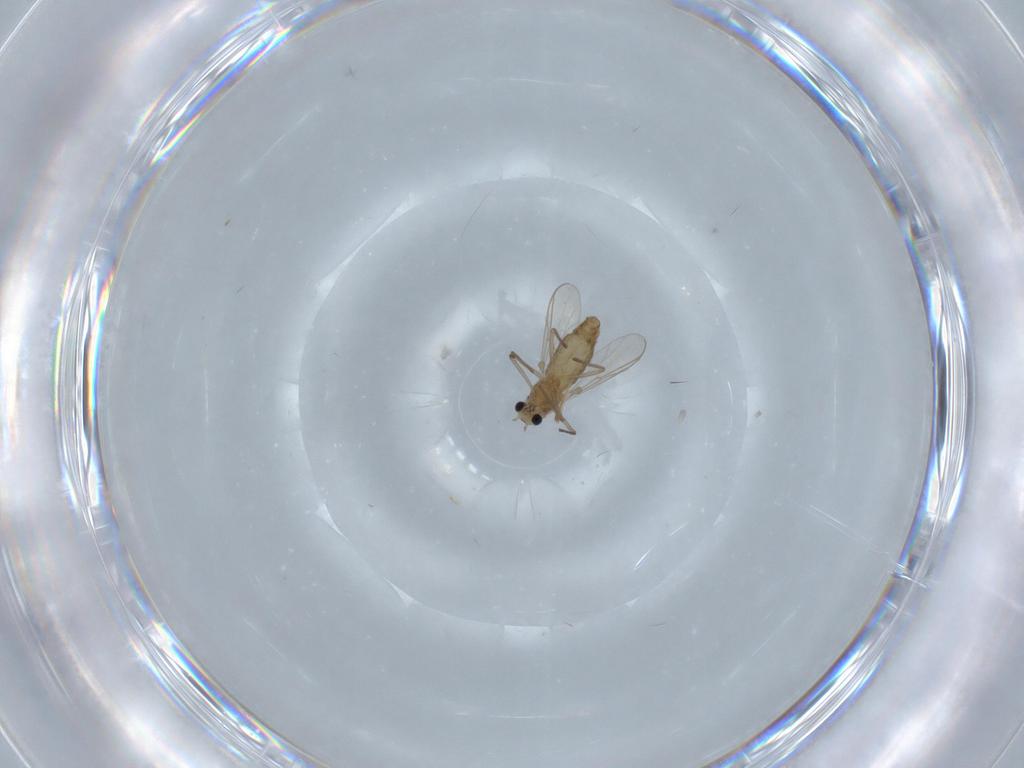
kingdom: Animalia
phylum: Arthropoda
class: Insecta
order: Diptera
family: Chironomidae
